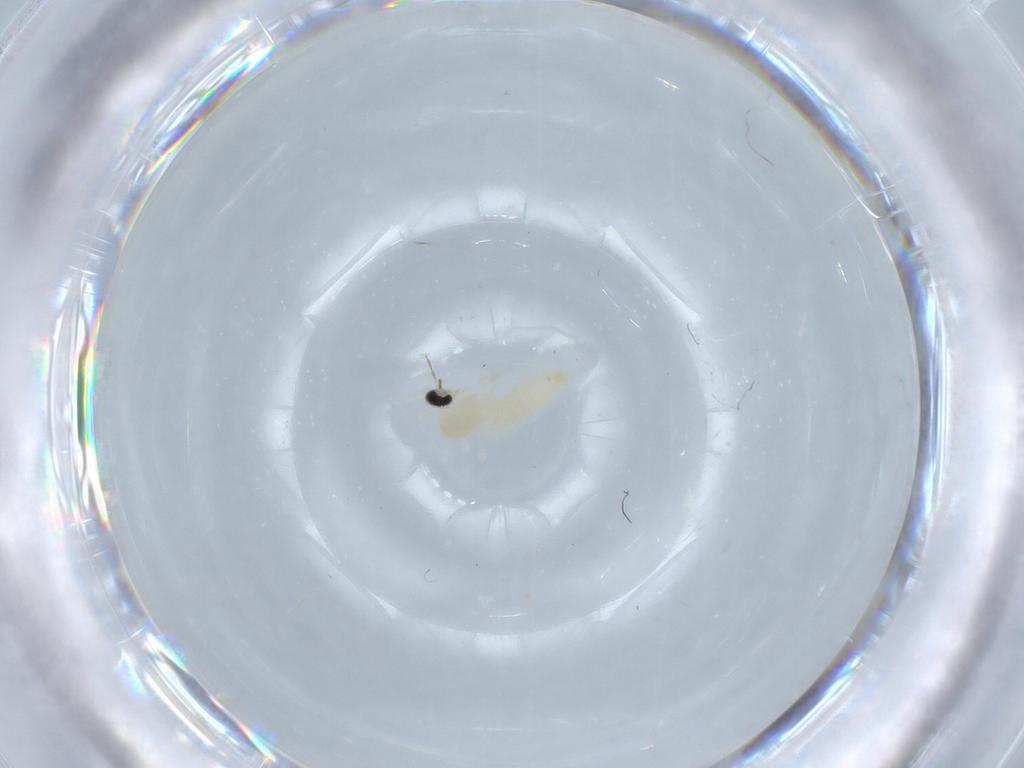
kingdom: Animalia
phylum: Arthropoda
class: Insecta
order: Diptera
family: Cecidomyiidae
